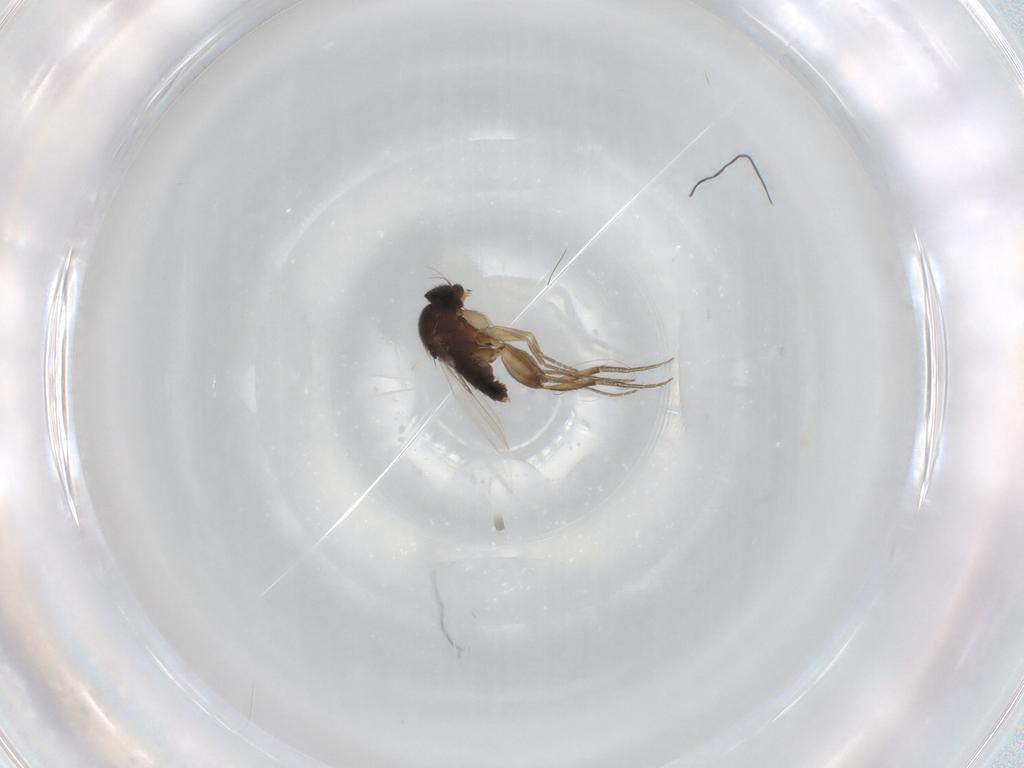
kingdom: Animalia
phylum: Arthropoda
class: Insecta
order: Diptera
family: Phoridae
